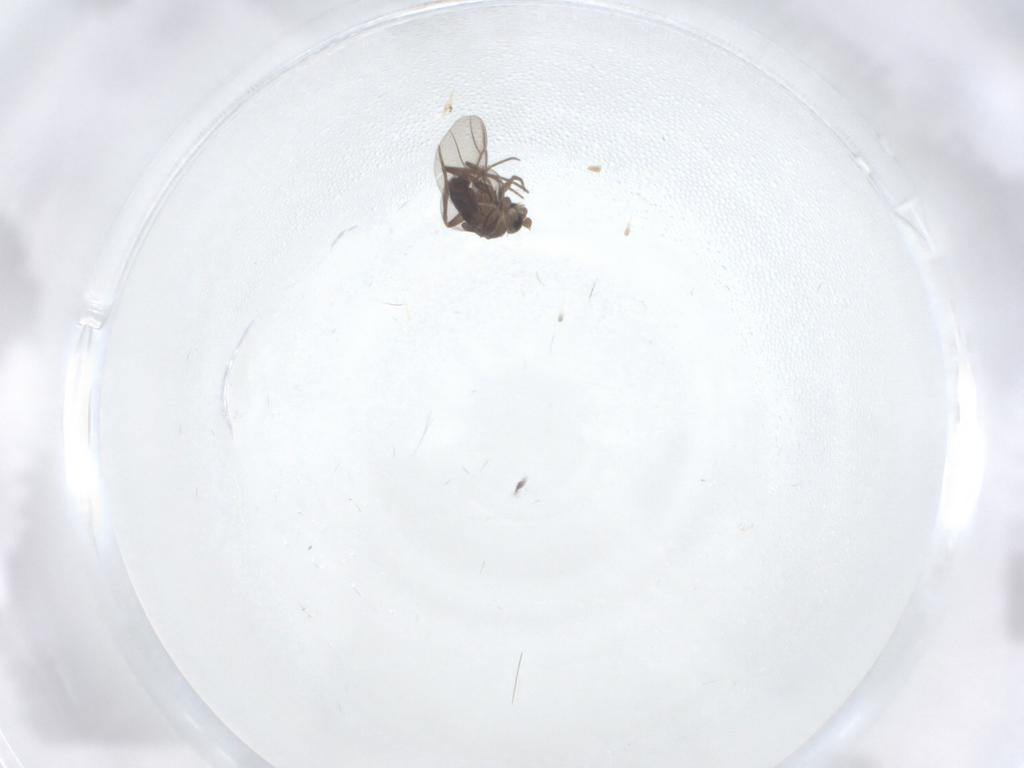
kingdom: Animalia
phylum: Arthropoda
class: Insecta
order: Diptera
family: Phoridae
